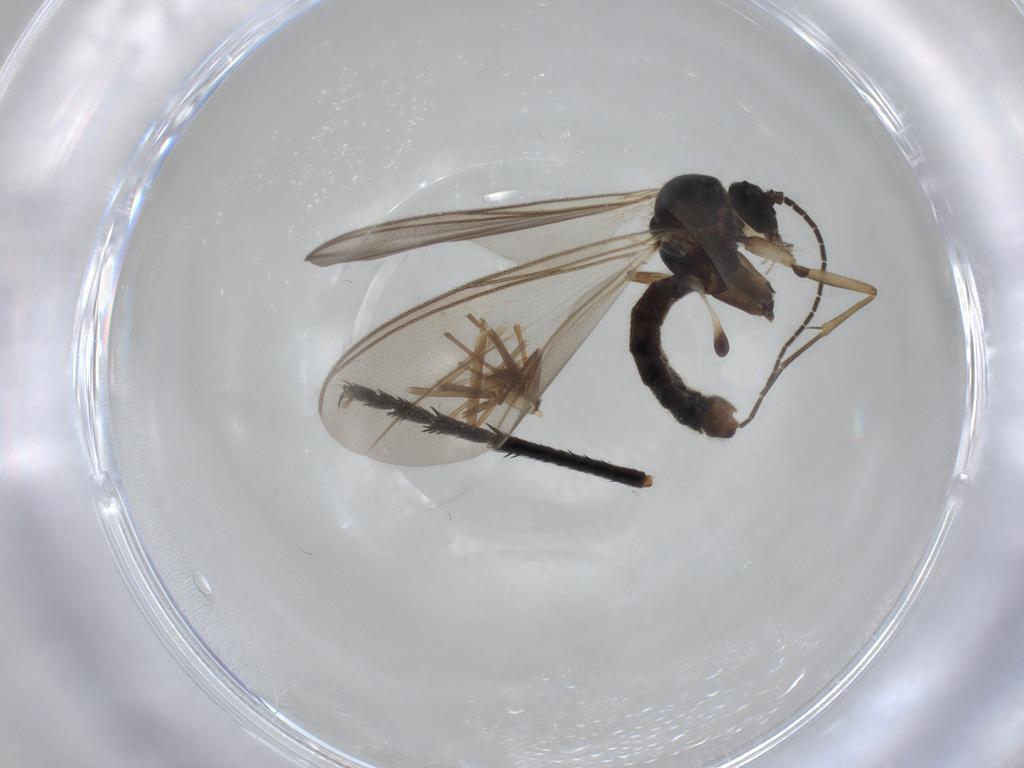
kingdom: Animalia
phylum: Arthropoda
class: Insecta
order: Diptera
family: Chironomidae
